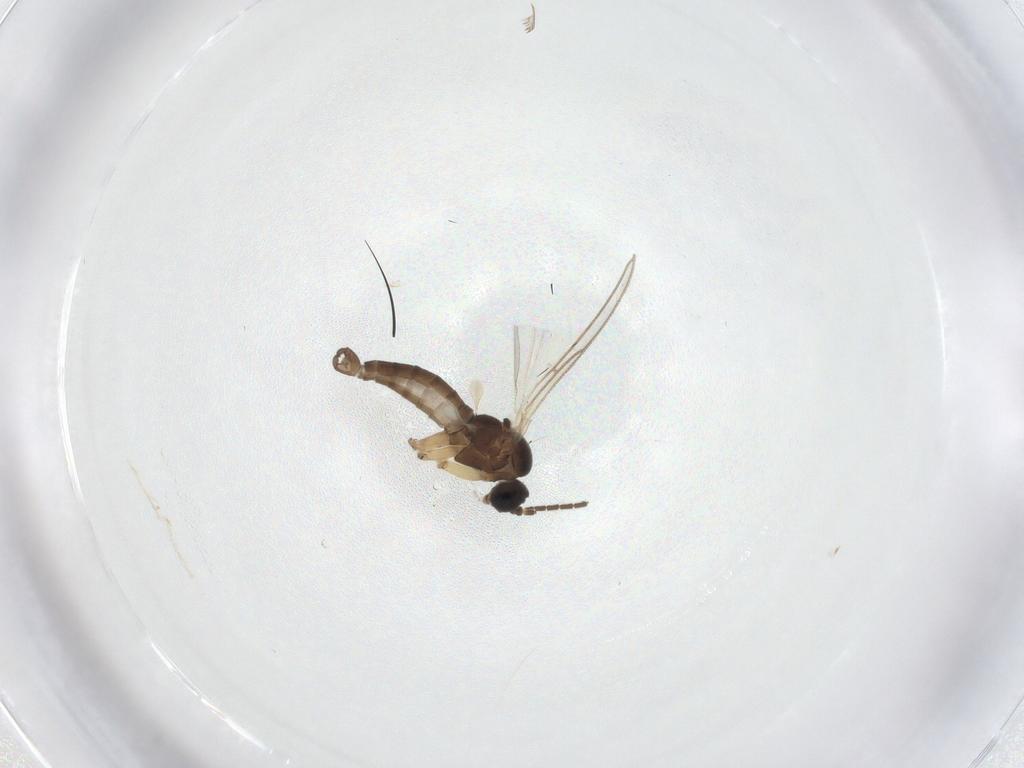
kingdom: Animalia
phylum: Arthropoda
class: Insecta
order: Diptera
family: Sciaridae
